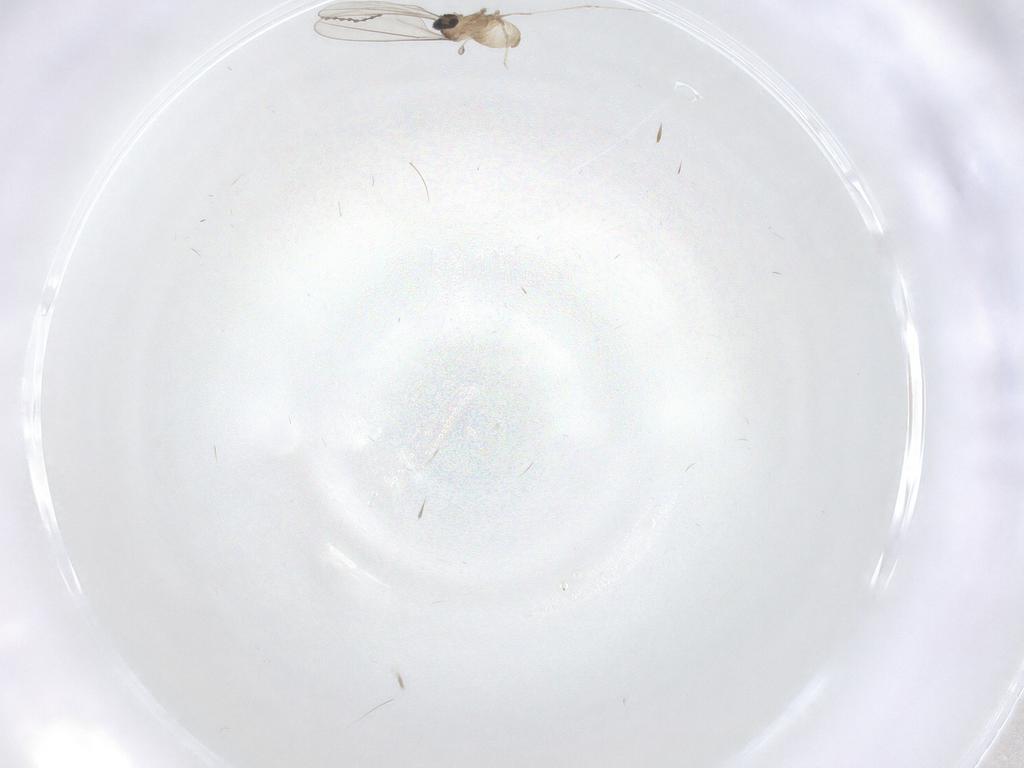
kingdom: Animalia
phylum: Arthropoda
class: Insecta
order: Diptera
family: Cecidomyiidae
